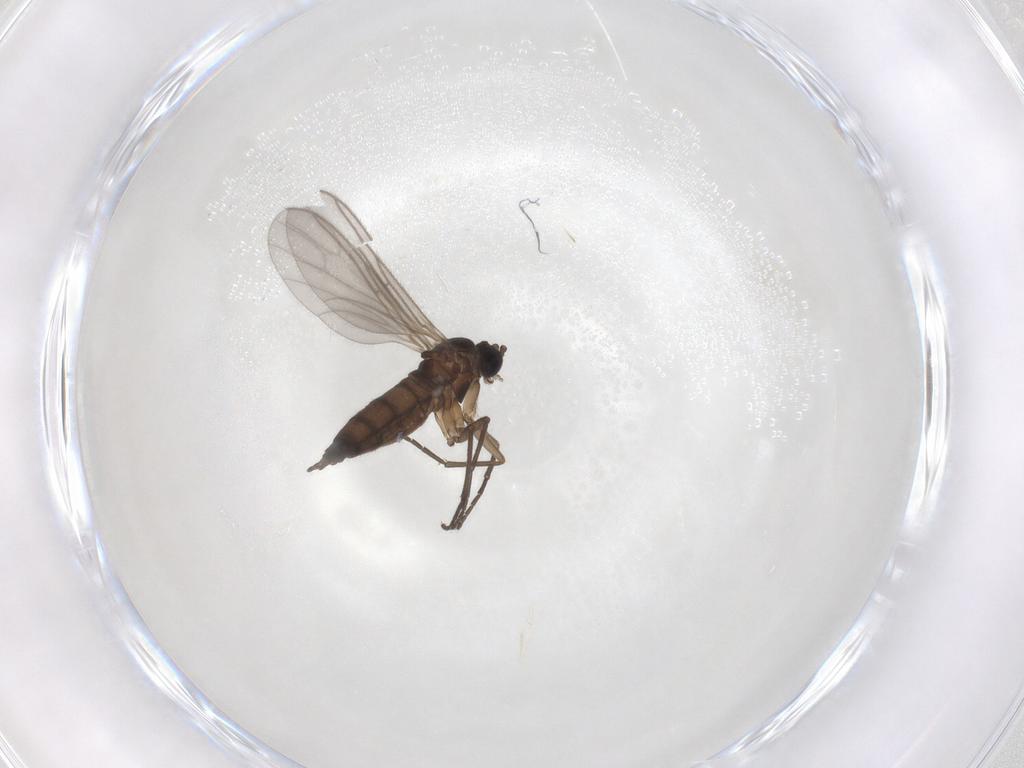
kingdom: Animalia
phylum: Arthropoda
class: Insecta
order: Diptera
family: Sciaridae
